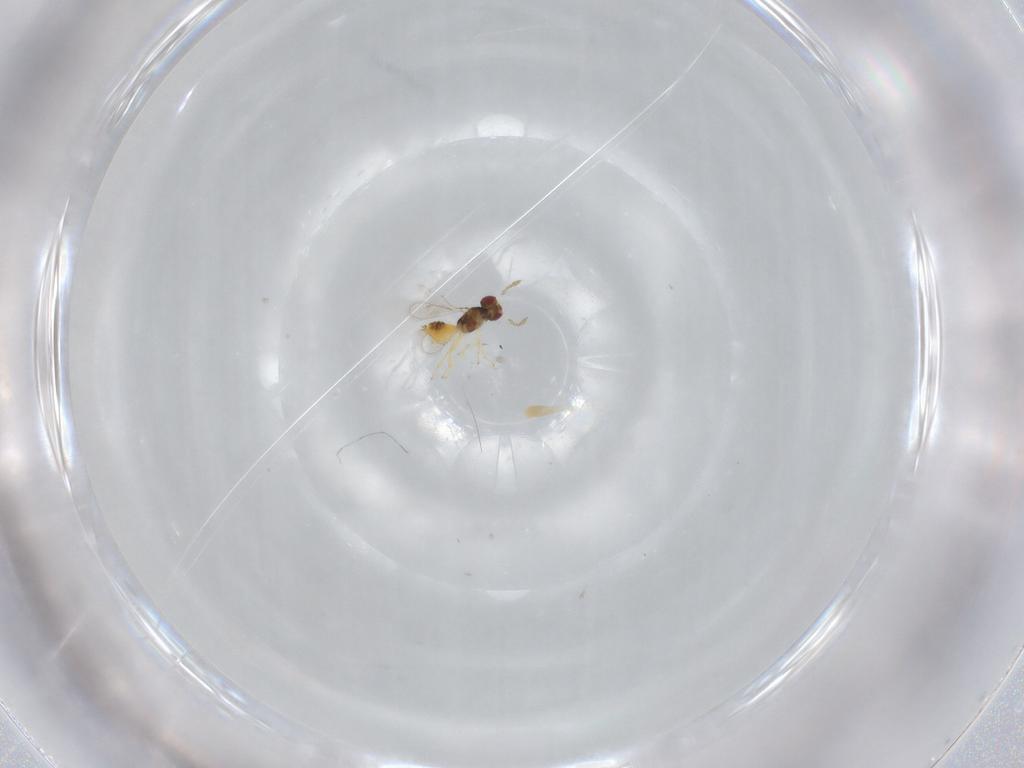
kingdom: Animalia
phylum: Arthropoda
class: Insecta
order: Hymenoptera
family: Eulophidae
